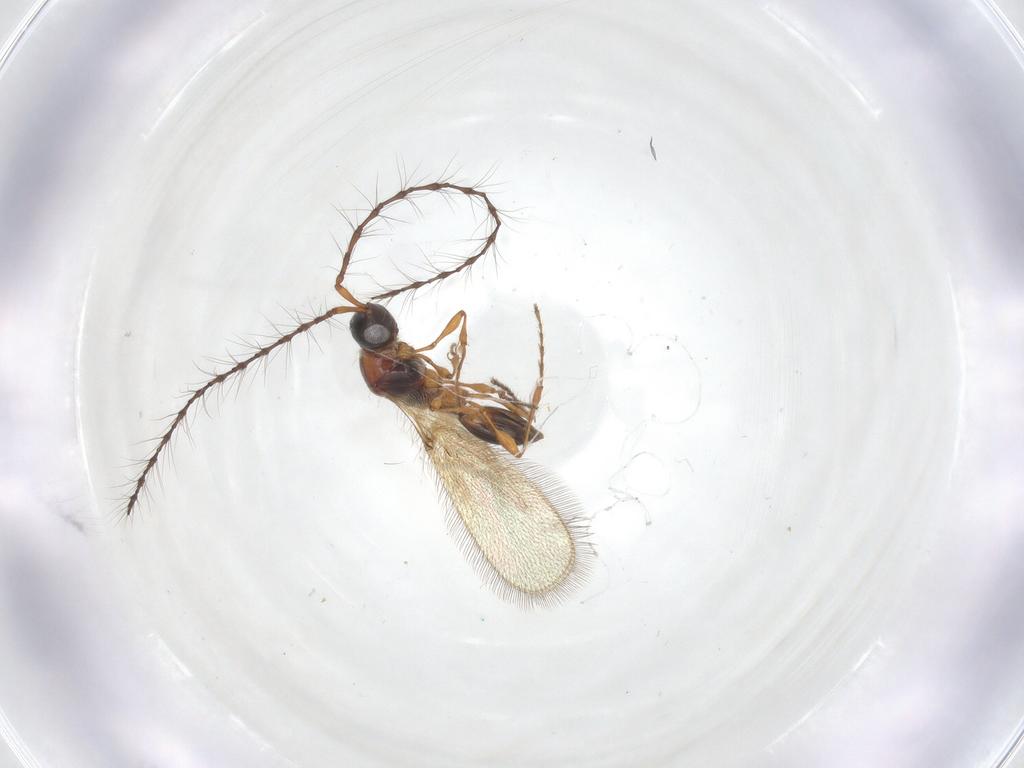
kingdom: Animalia
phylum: Arthropoda
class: Insecta
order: Hymenoptera
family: Diapriidae
